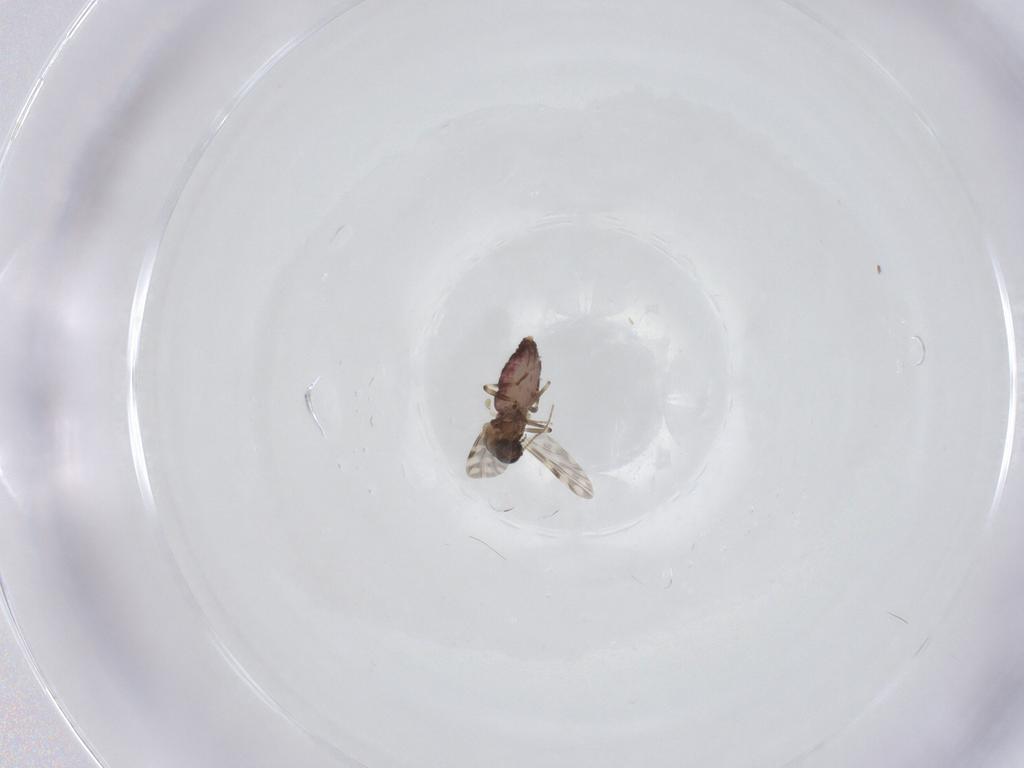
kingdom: Animalia
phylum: Arthropoda
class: Insecta
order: Diptera
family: Ceratopogonidae
